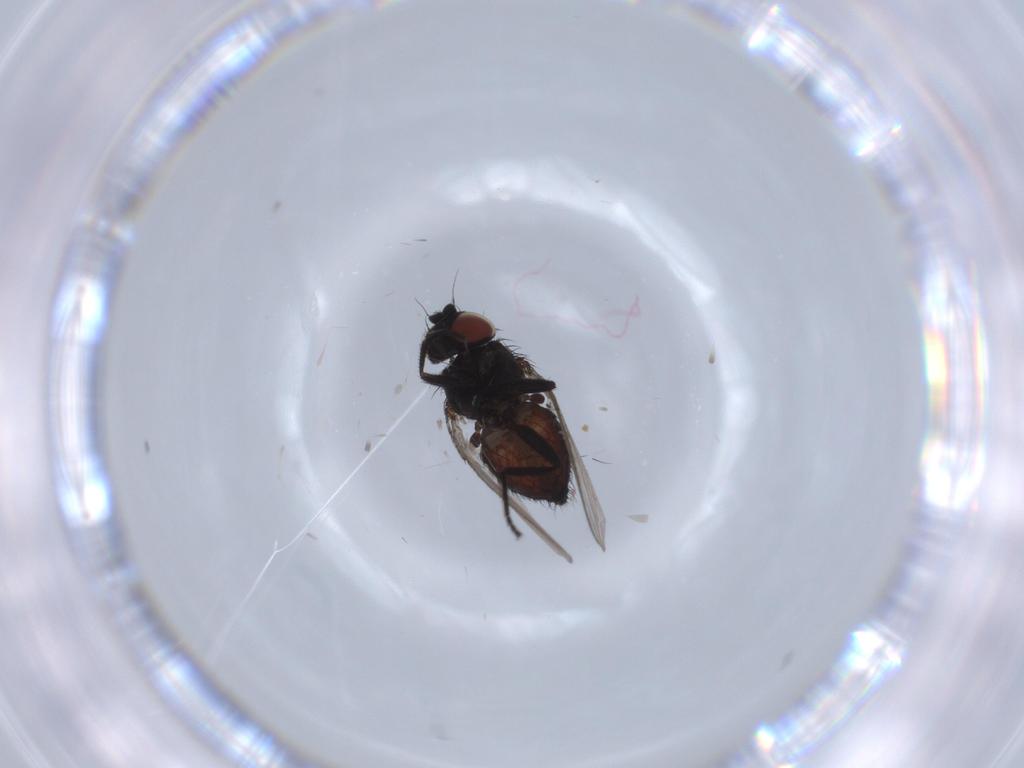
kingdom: Animalia
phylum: Arthropoda
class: Insecta
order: Diptera
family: Milichiidae
